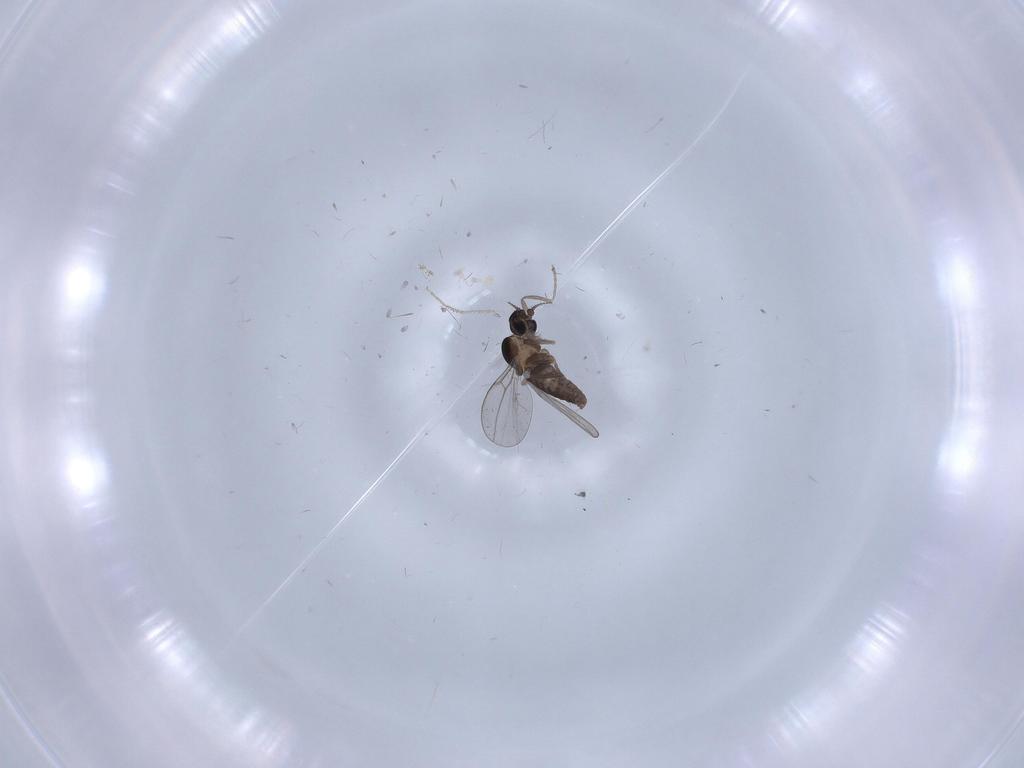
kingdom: Animalia
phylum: Arthropoda
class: Insecta
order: Diptera
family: Chironomidae
